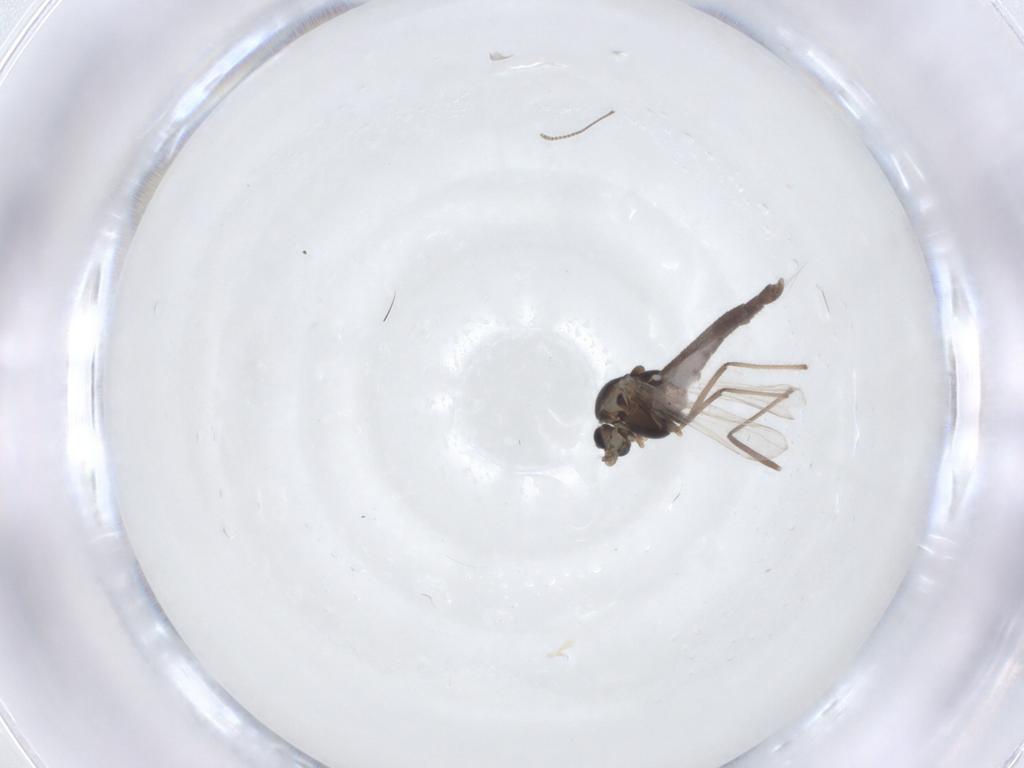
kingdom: Animalia
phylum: Arthropoda
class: Insecta
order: Diptera
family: Chironomidae
